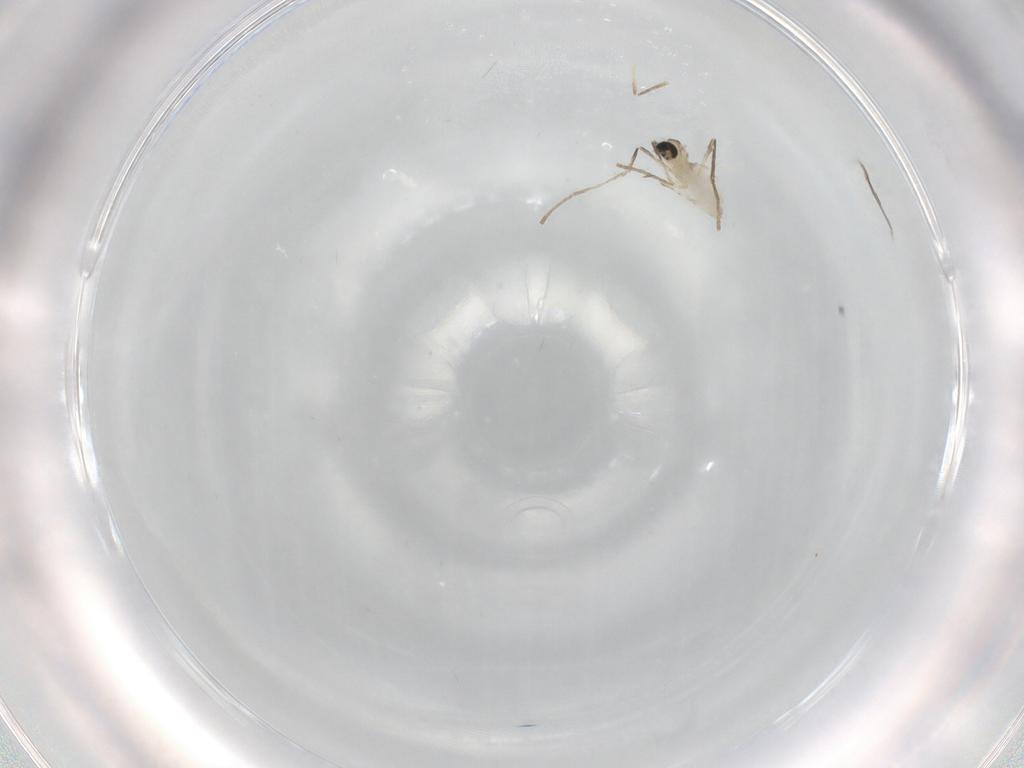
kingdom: Animalia
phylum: Arthropoda
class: Insecta
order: Diptera
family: Cecidomyiidae
